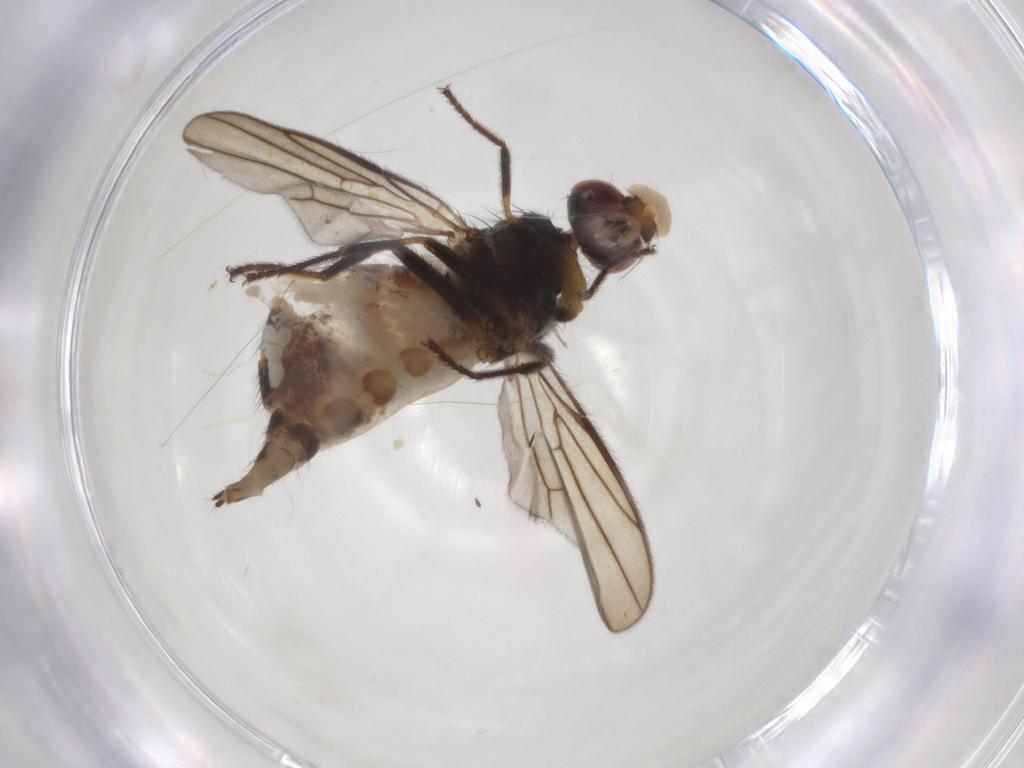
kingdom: Animalia
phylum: Arthropoda
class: Insecta
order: Diptera
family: Chloropidae
